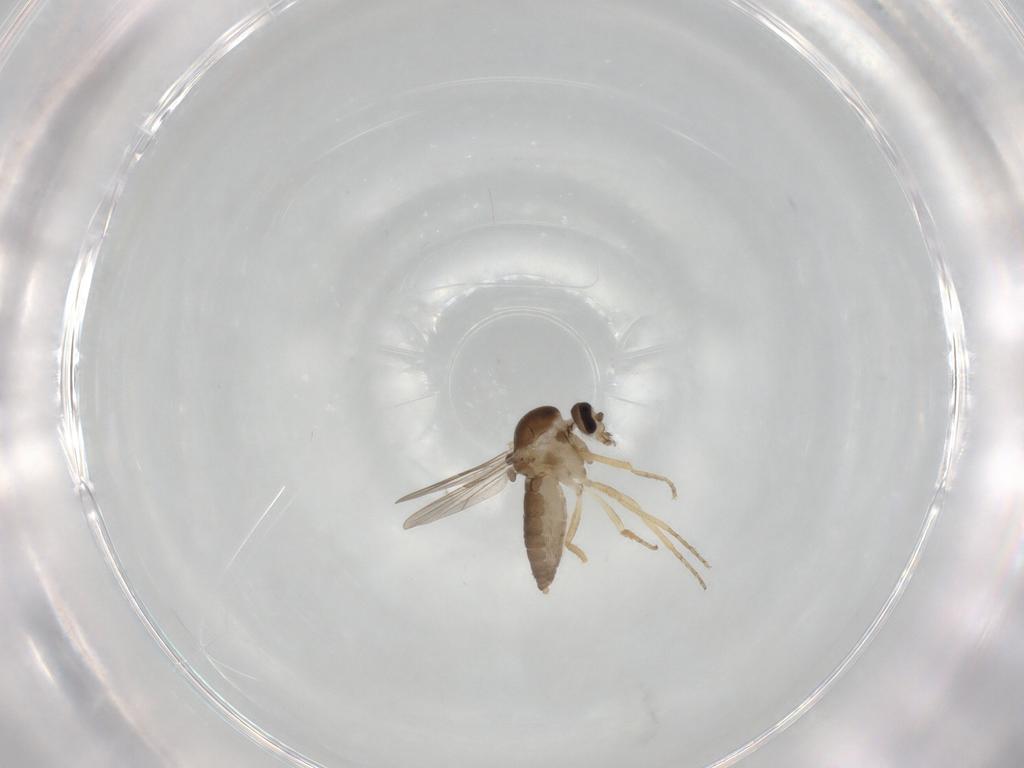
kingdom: Animalia
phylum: Arthropoda
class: Insecta
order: Diptera
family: Ceratopogonidae
